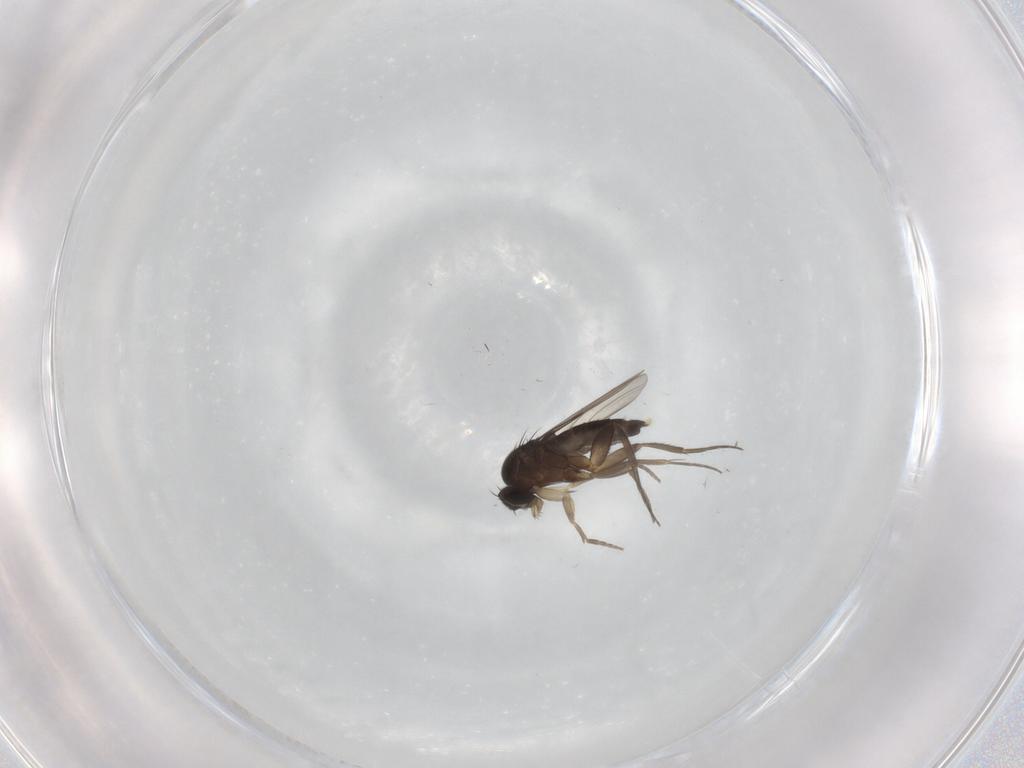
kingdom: Animalia
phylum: Arthropoda
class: Insecta
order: Diptera
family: Phoridae
